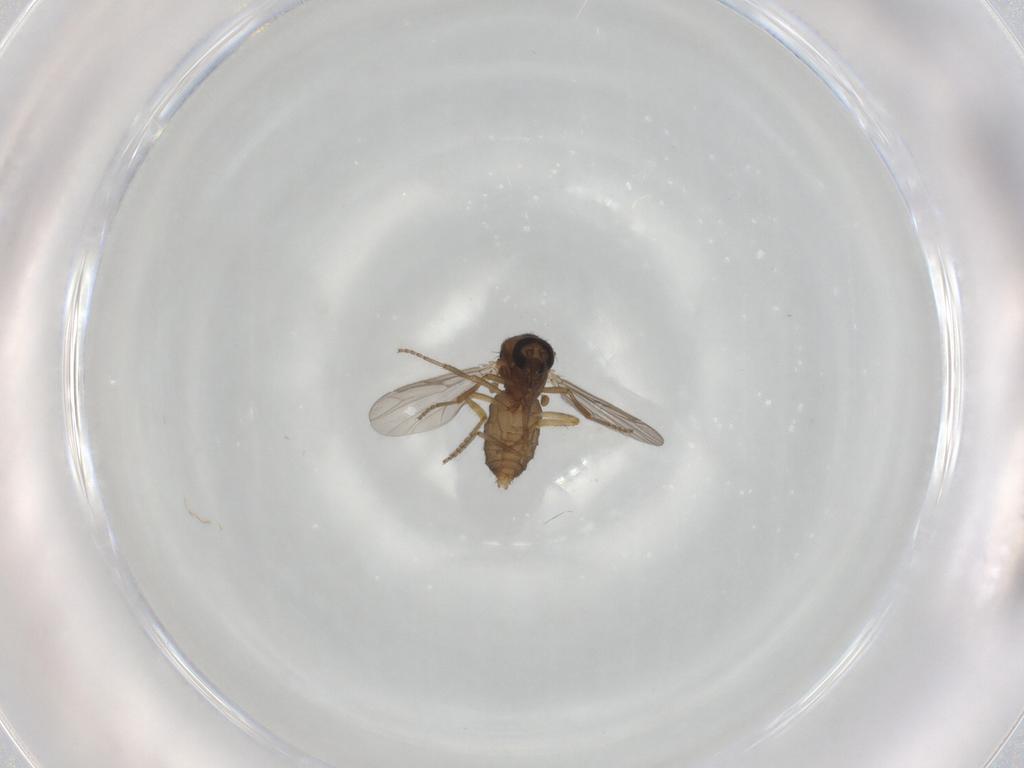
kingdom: Animalia
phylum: Arthropoda
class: Insecta
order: Diptera
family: Ceratopogonidae
